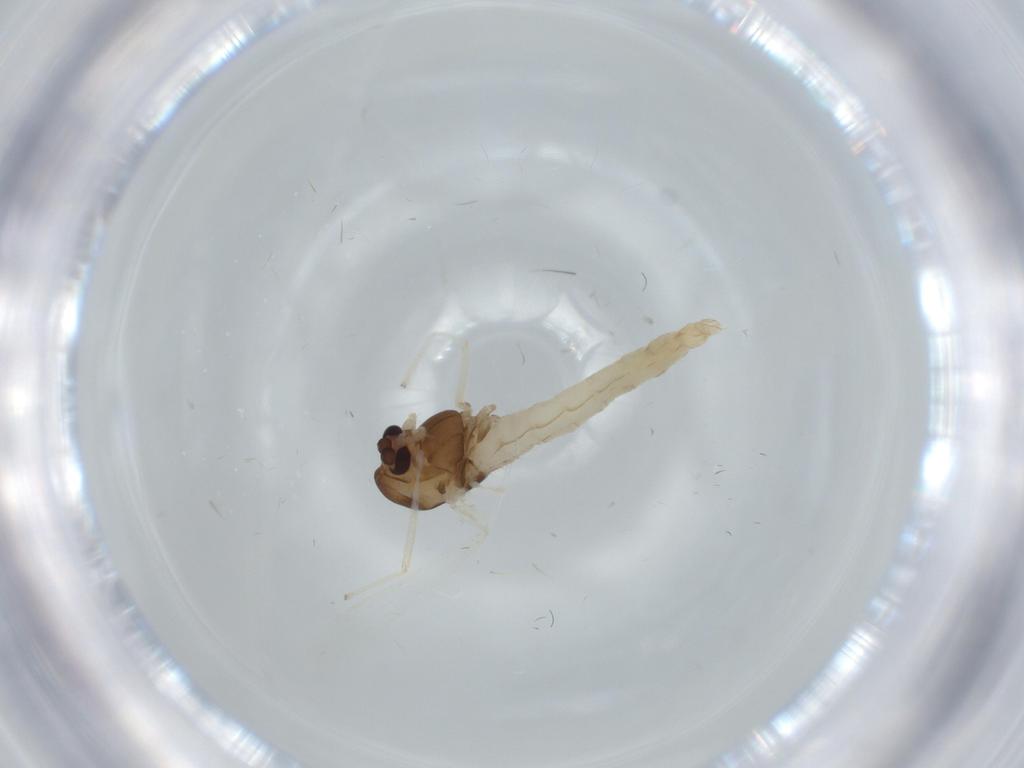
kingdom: Animalia
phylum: Arthropoda
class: Insecta
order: Diptera
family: Chironomidae
